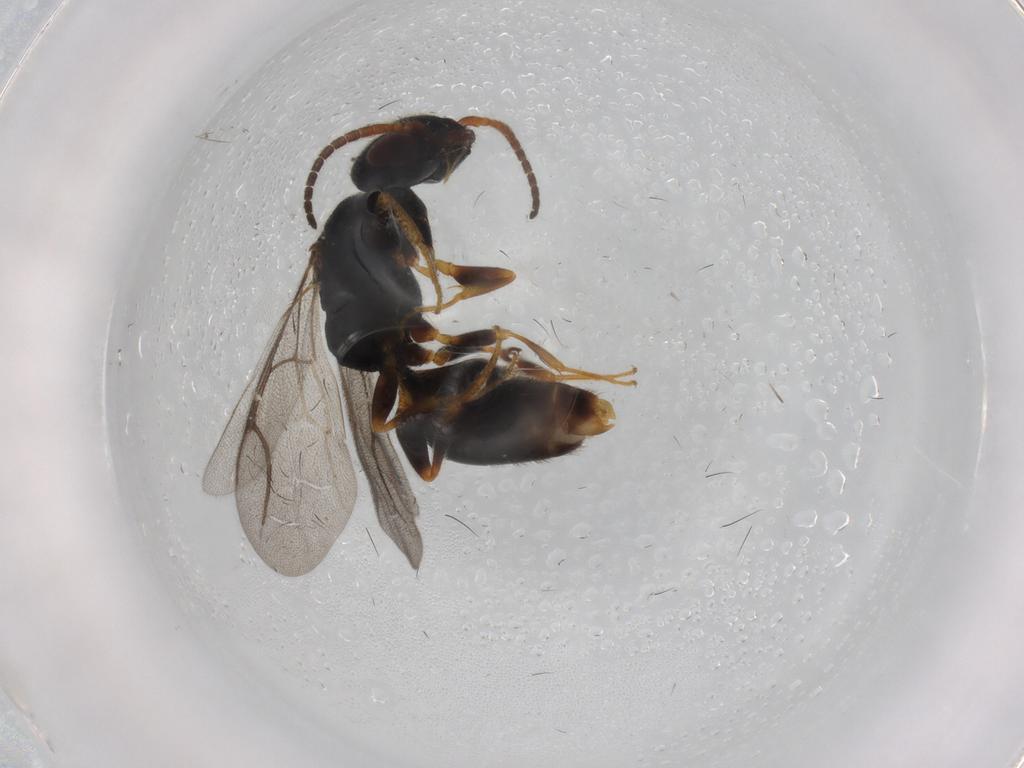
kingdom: Animalia
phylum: Arthropoda
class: Insecta
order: Hymenoptera
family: Bethylidae
